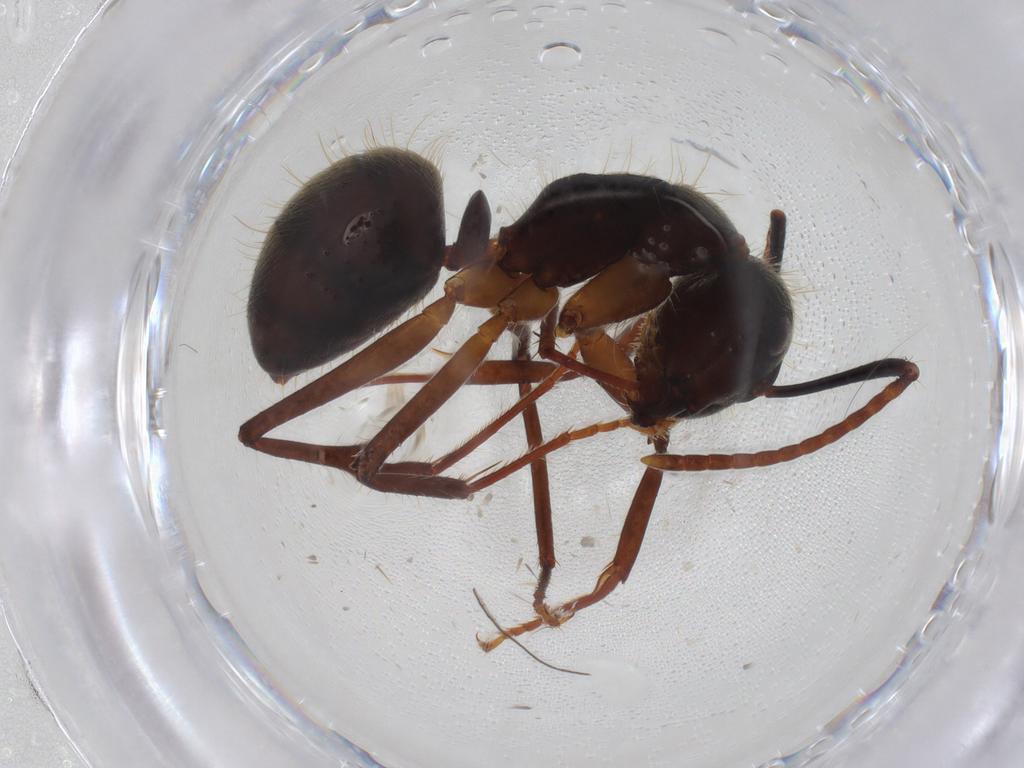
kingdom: Animalia
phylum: Arthropoda
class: Insecta
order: Hymenoptera
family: Formicidae
